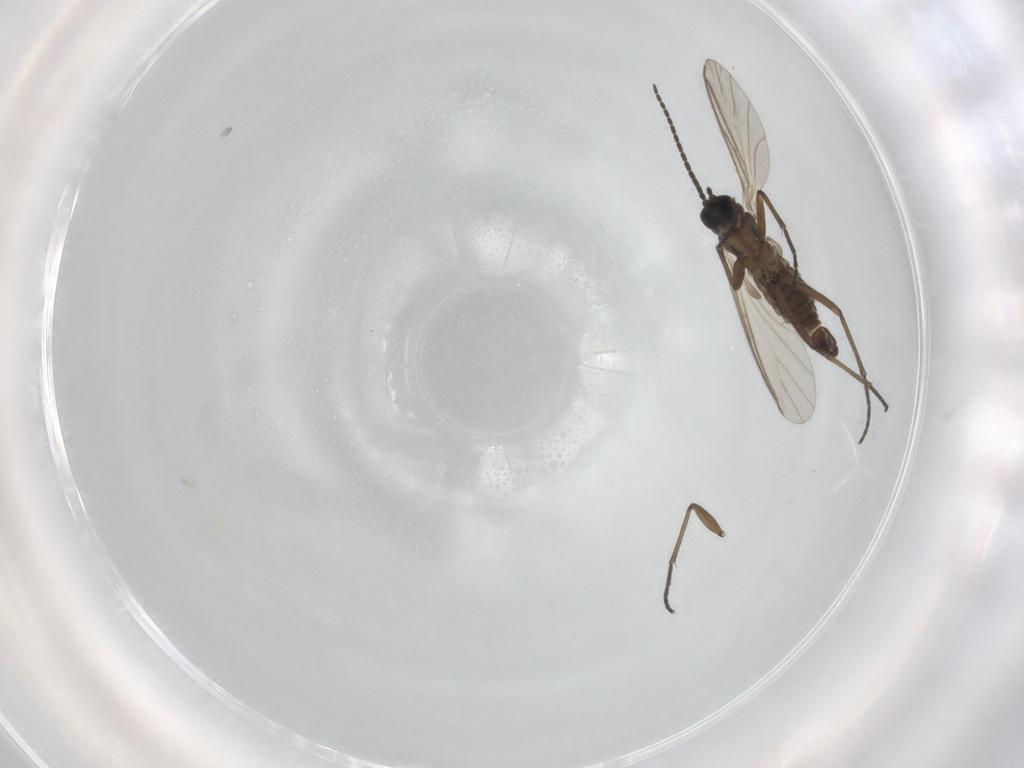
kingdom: Animalia
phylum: Arthropoda
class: Insecta
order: Diptera
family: Sciaridae
